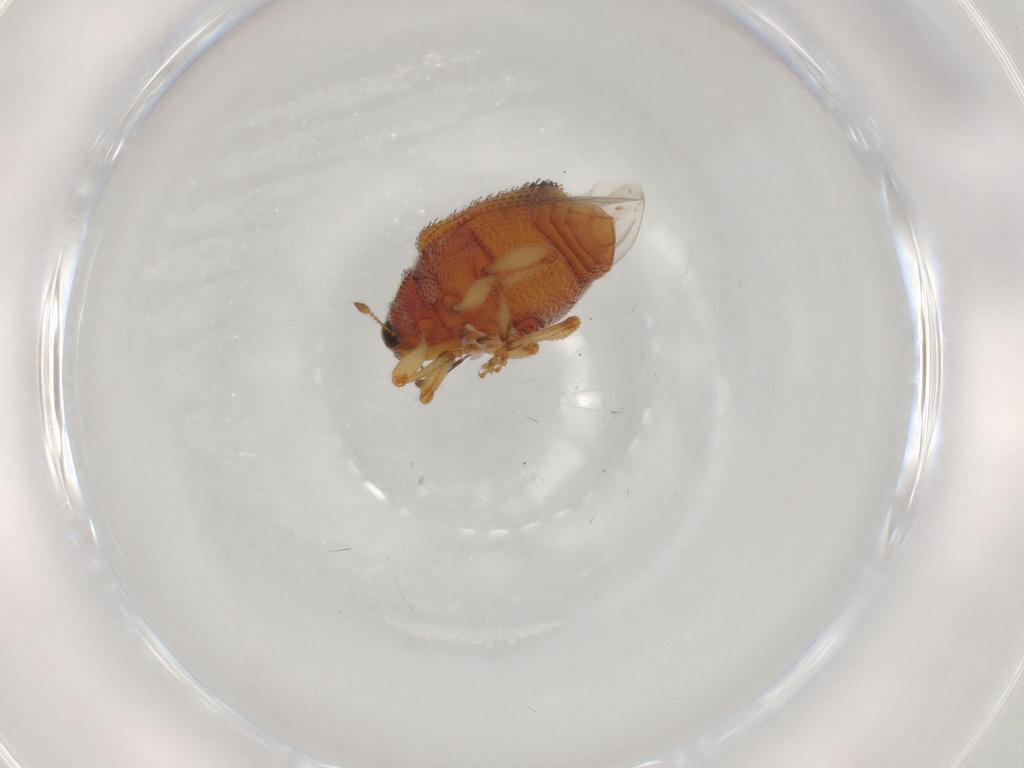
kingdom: Animalia
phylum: Arthropoda
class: Insecta
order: Coleoptera
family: Curculionidae
